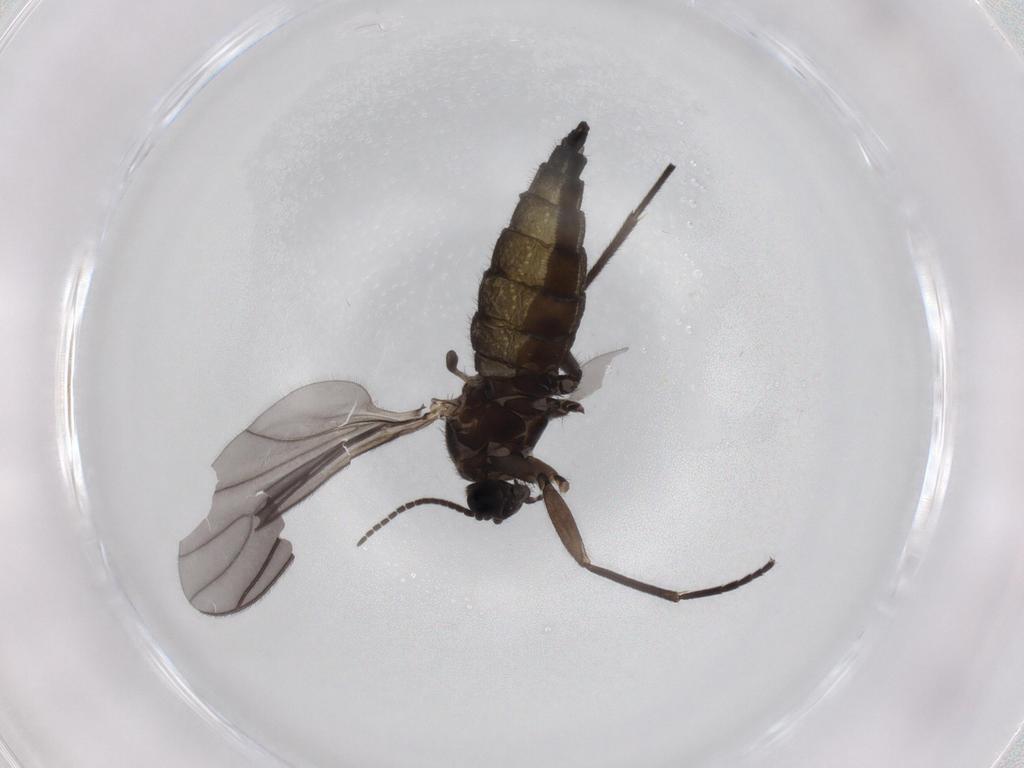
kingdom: Animalia
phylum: Arthropoda
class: Insecta
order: Diptera
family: Sciaridae
